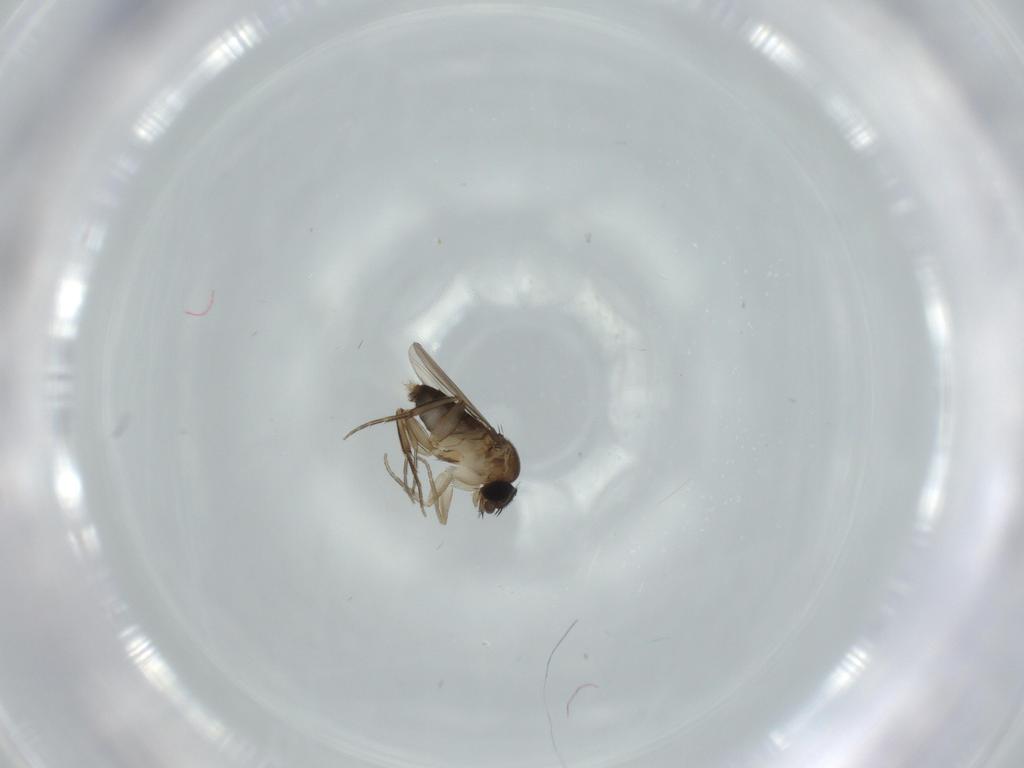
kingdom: Animalia
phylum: Arthropoda
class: Insecta
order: Diptera
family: Phoridae
